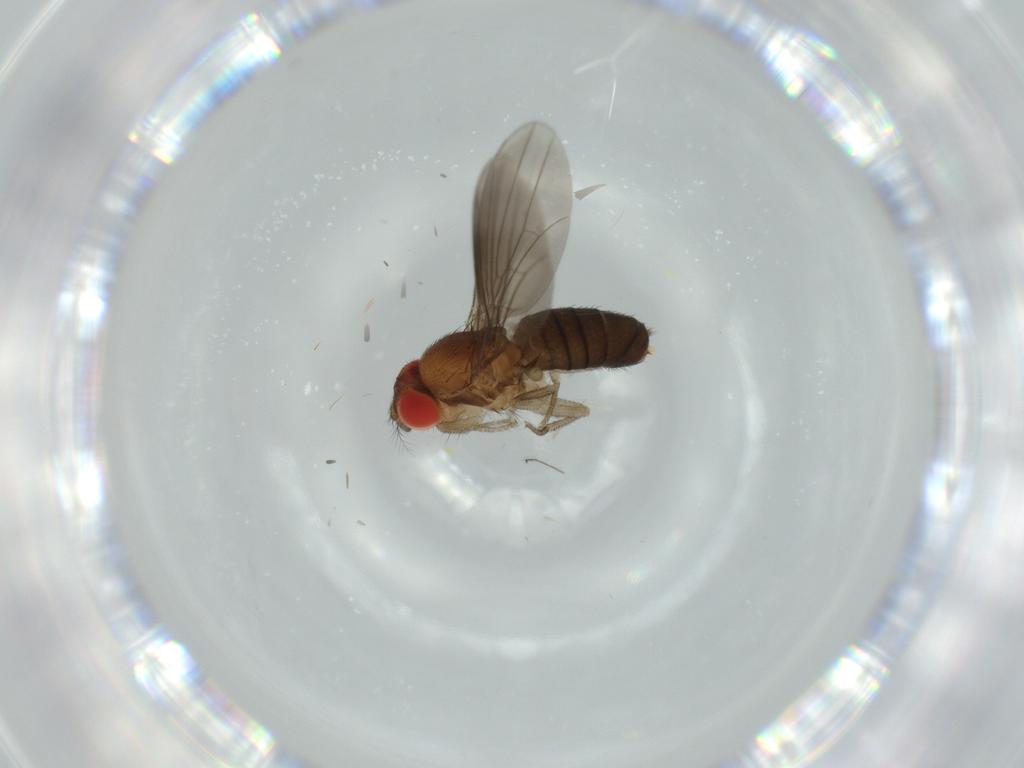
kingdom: Animalia
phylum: Arthropoda
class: Insecta
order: Diptera
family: Drosophilidae
